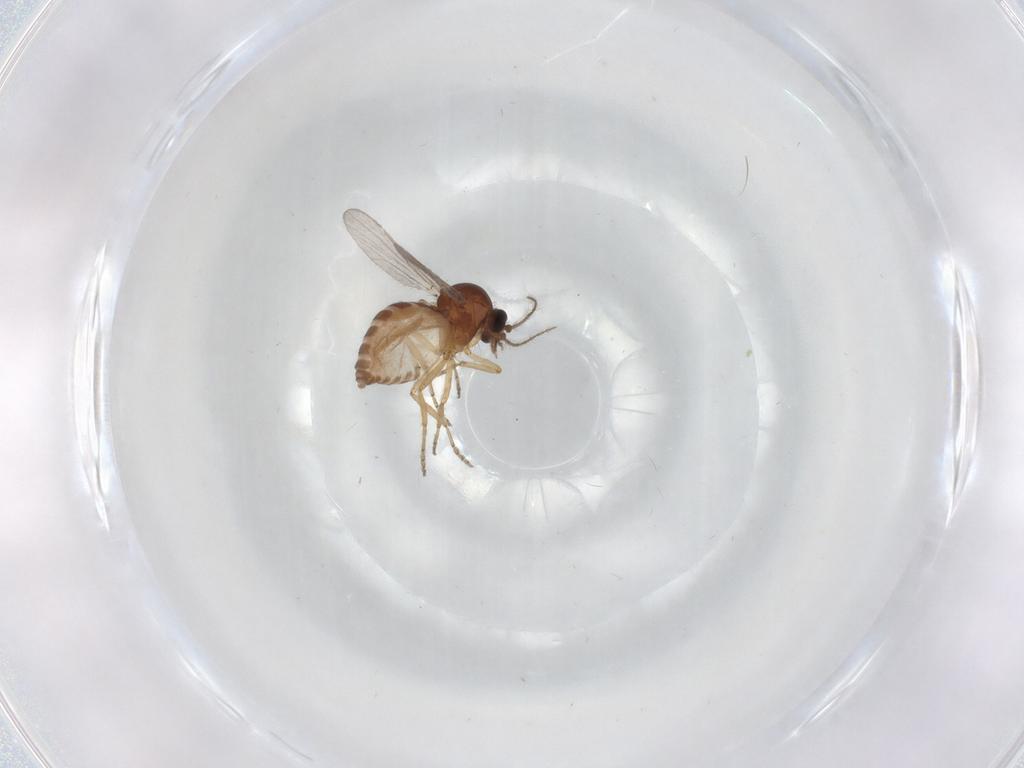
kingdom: Animalia
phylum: Arthropoda
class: Insecta
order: Diptera
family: Ceratopogonidae
